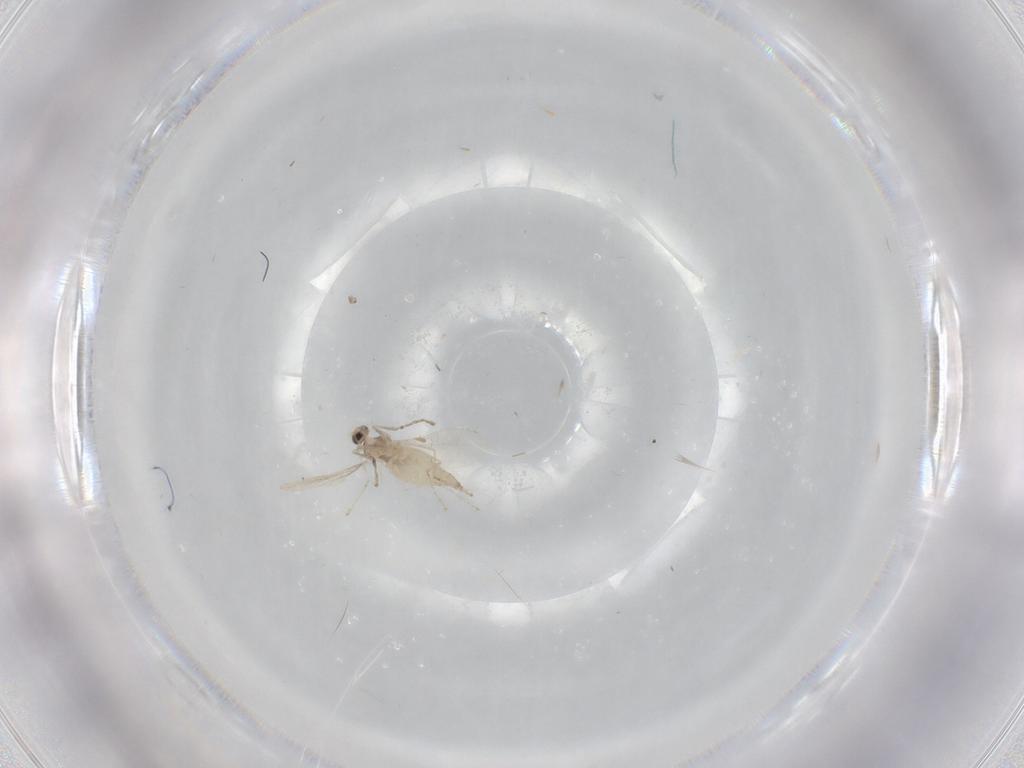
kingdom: Animalia
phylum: Arthropoda
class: Insecta
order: Diptera
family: Cecidomyiidae
